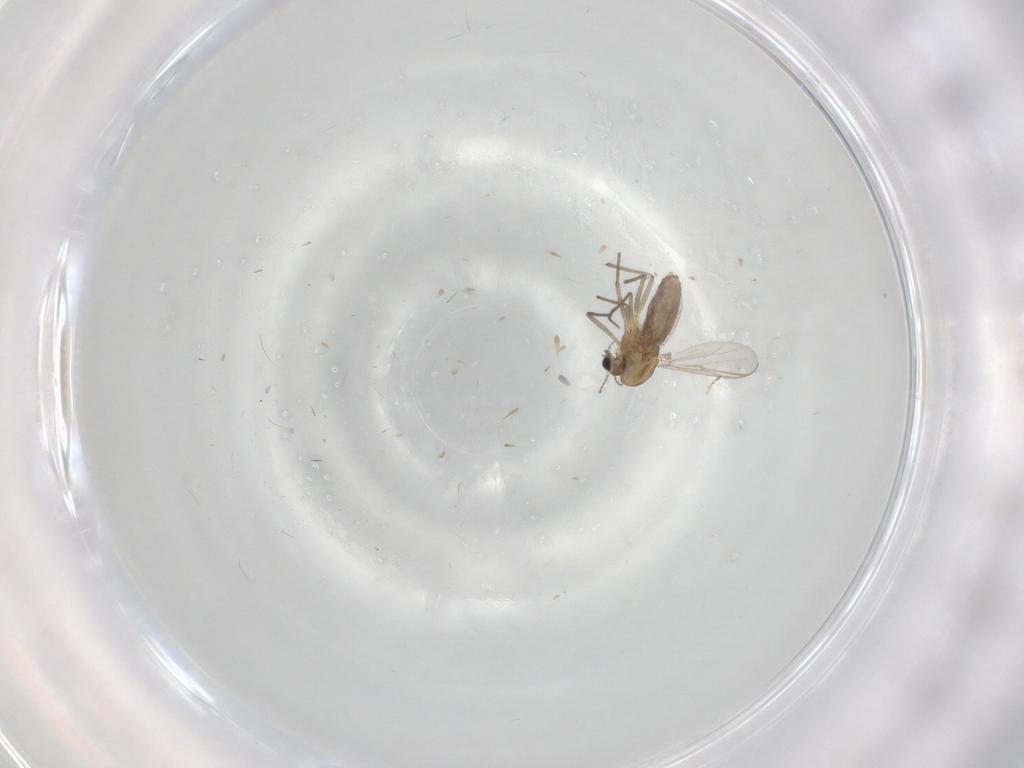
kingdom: Animalia
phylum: Arthropoda
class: Insecta
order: Diptera
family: Chironomidae
